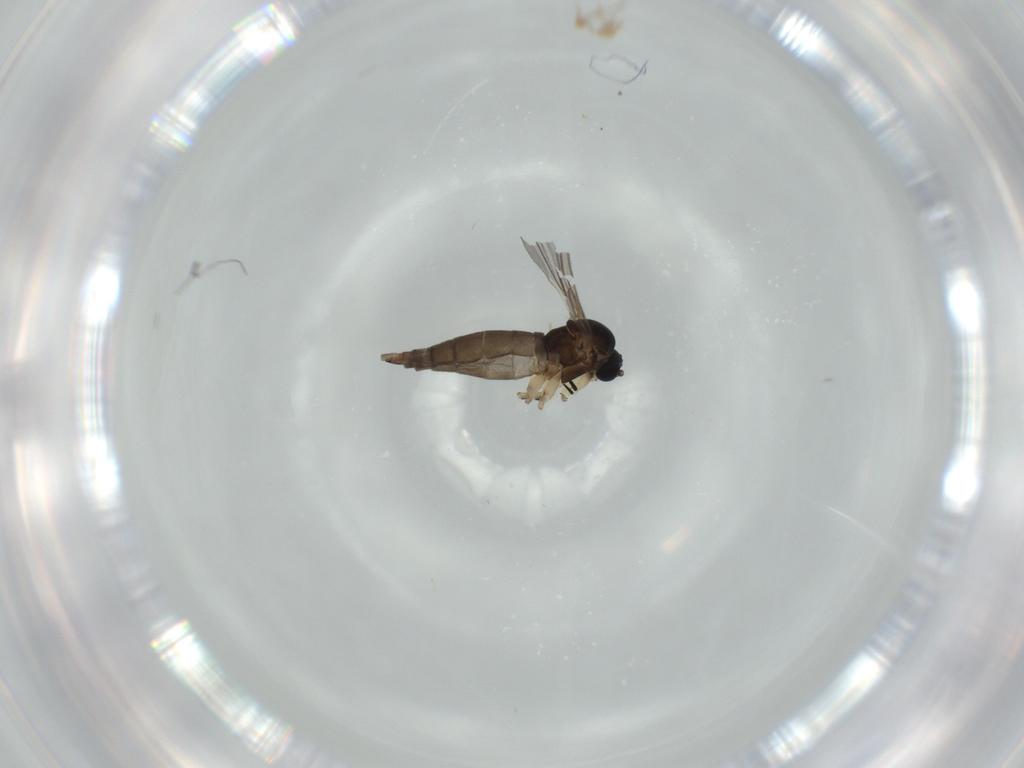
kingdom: Animalia
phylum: Arthropoda
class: Insecta
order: Diptera
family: Sciaridae
